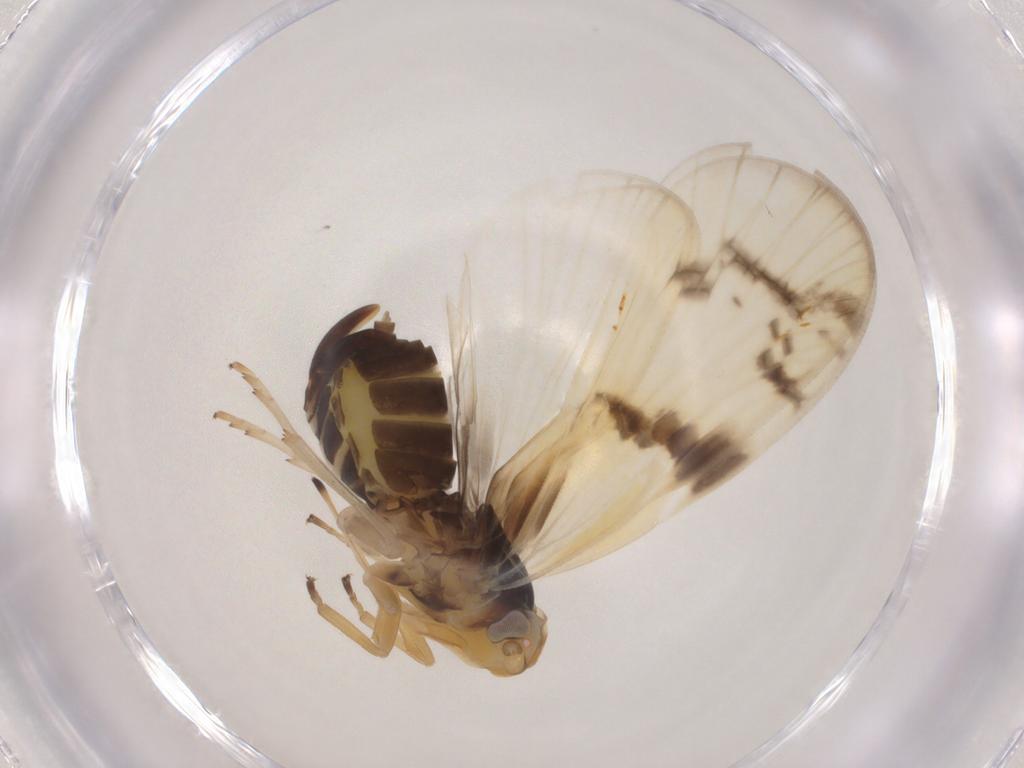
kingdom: Animalia
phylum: Arthropoda
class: Insecta
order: Hemiptera
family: Cixiidae
